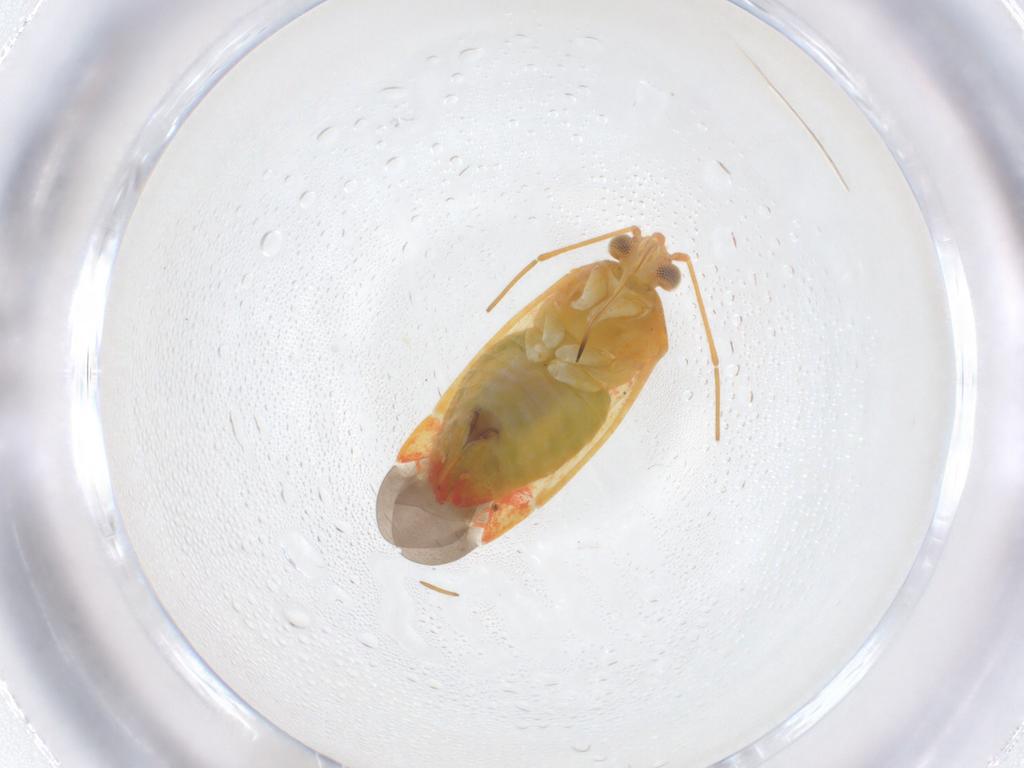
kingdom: Animalia
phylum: Arthropoda
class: Insecta
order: Hemiptera
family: Miridae
